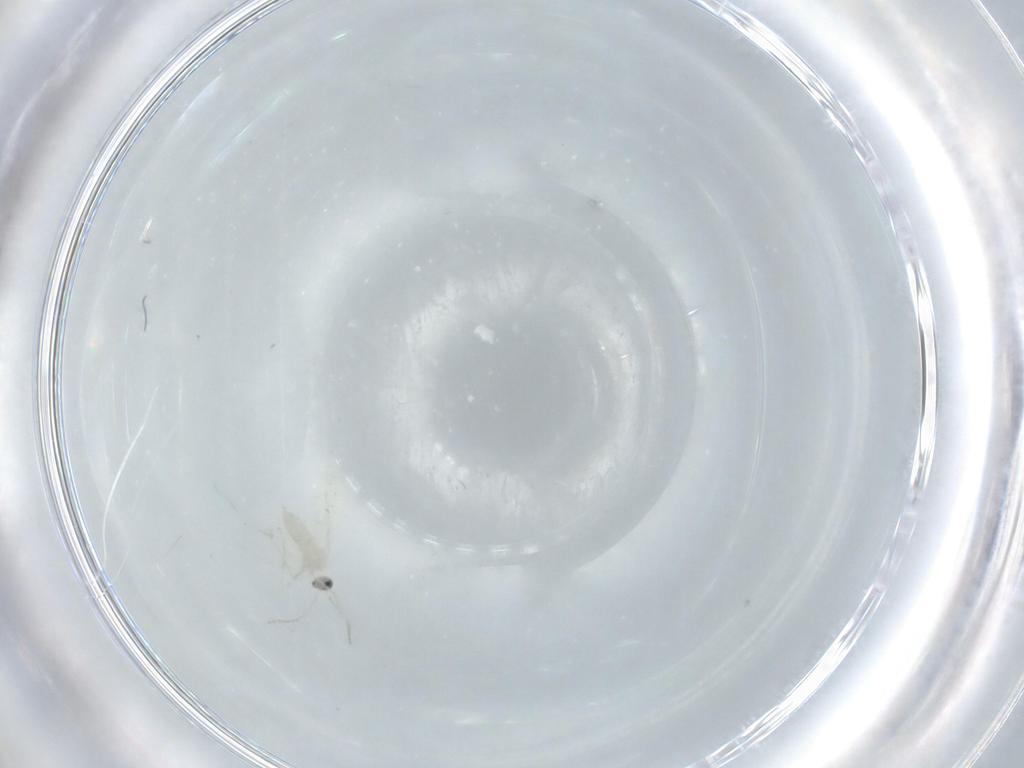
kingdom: Animalia
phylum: Arthropoda
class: Insecta
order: Diptera
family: Cecidomyiidae
